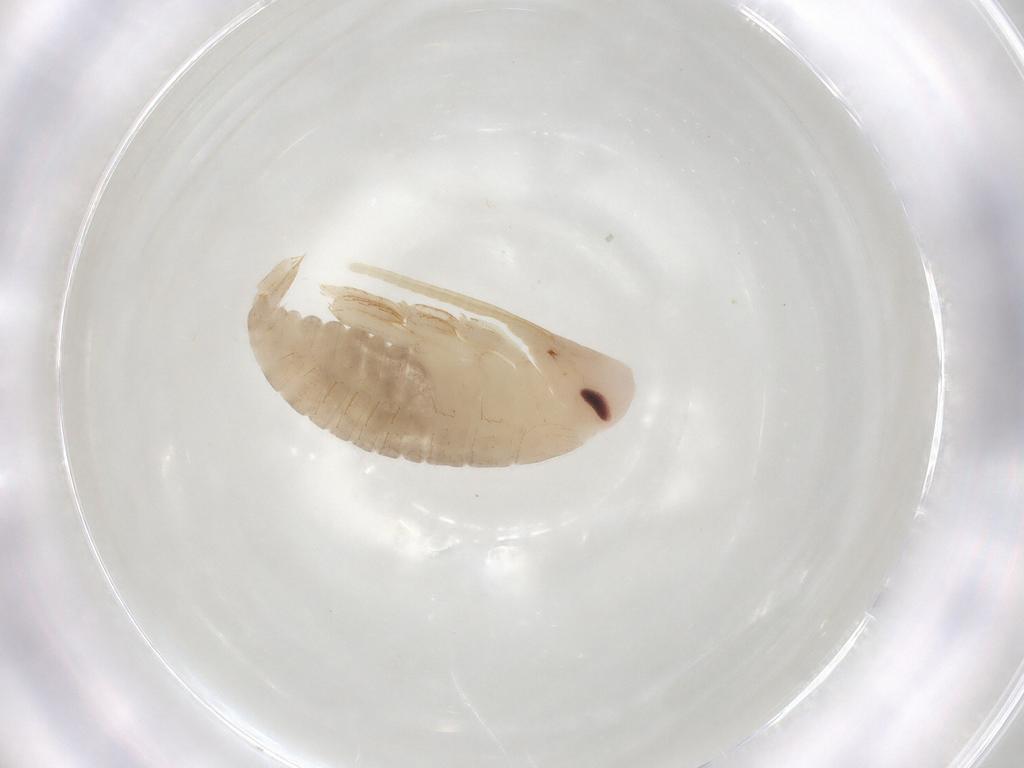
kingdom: Animalia
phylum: Arthropoda
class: Insecta
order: Blattodea
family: Ectobiidae
